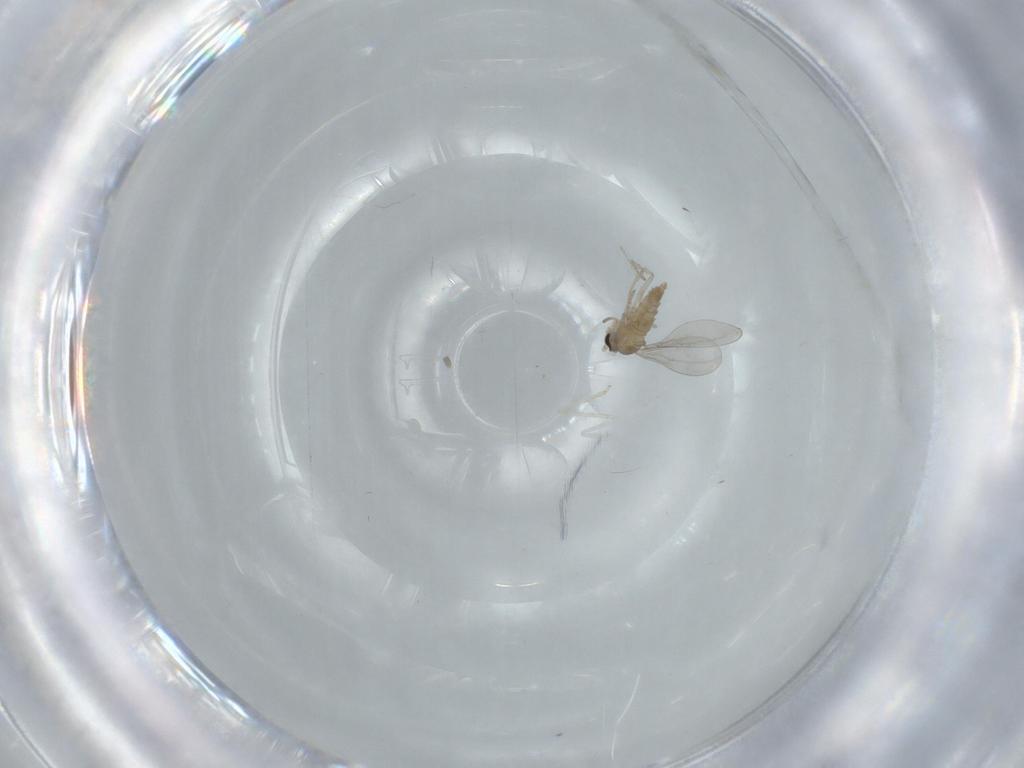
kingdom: Animalia
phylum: Arthropoda
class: Insecta
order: Diptera
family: Cecidomyiidae
